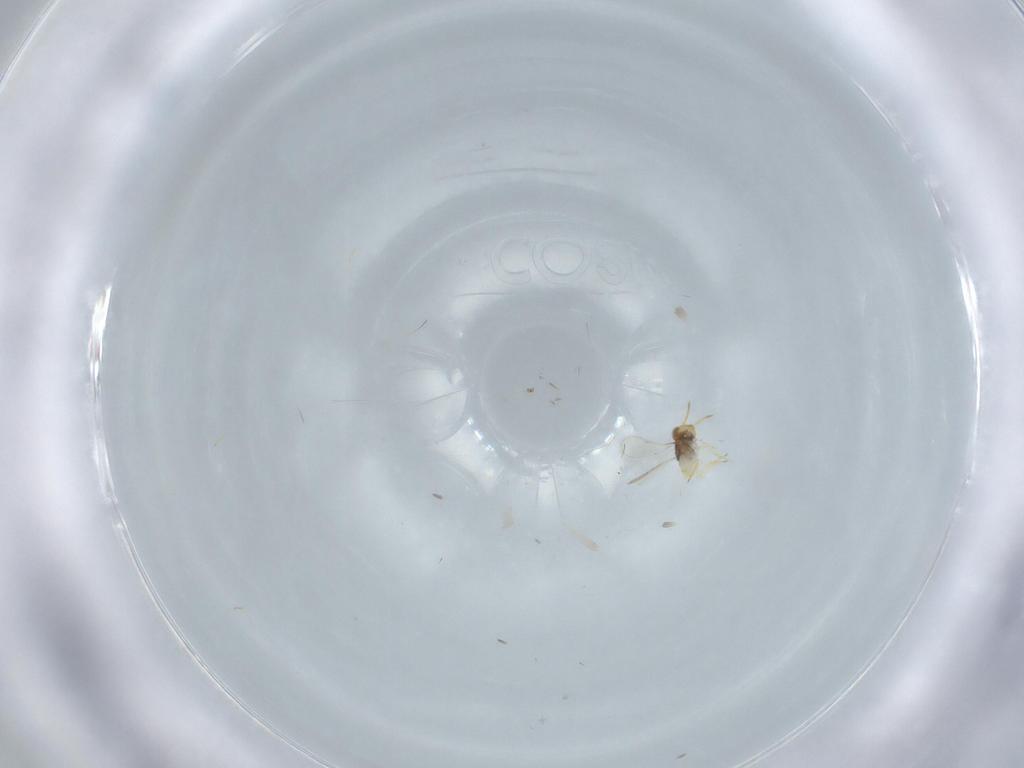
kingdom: Animalia
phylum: Arthropoda
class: Insecta
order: Hymenoptera
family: Aphelinidae
